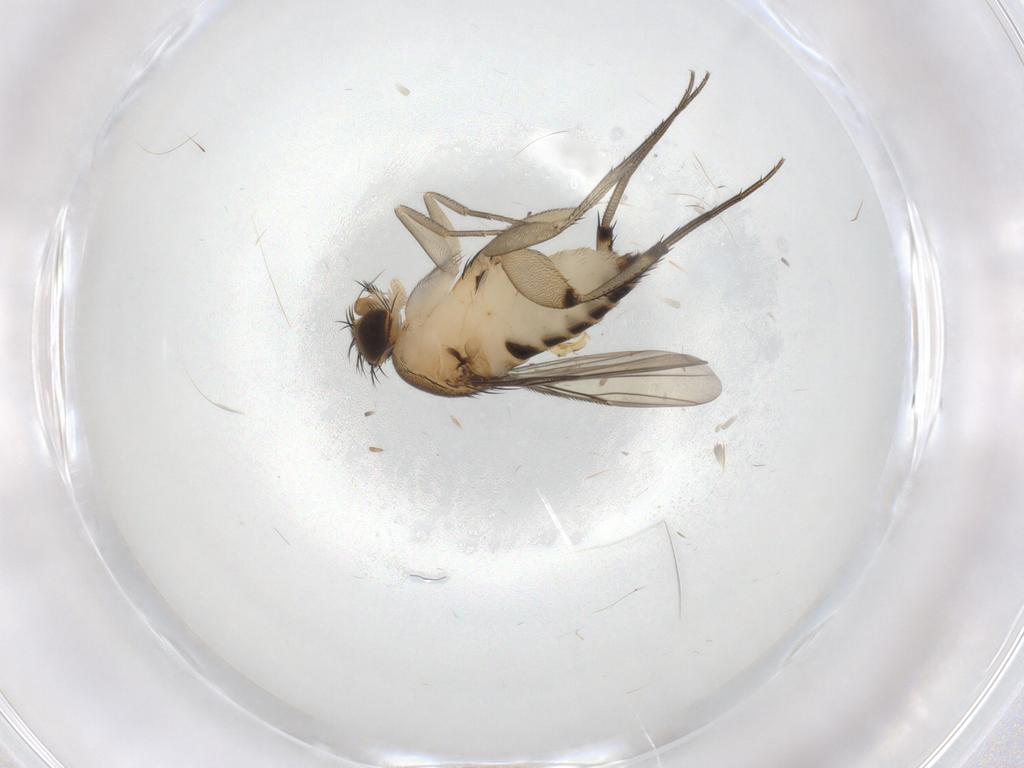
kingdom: Animalia
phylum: Arthropoda
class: Insecta
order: Diptera
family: Phoridae
